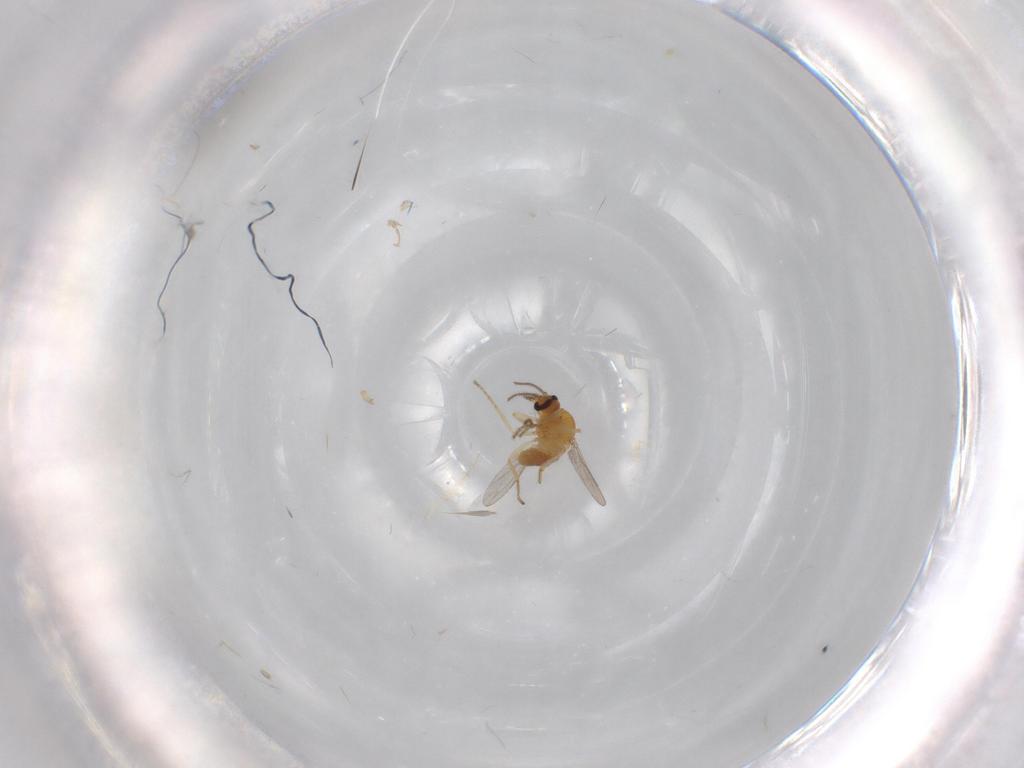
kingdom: Animalia
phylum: Arthropoda
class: Insecta
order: Diptera
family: Ceratopogonidae
